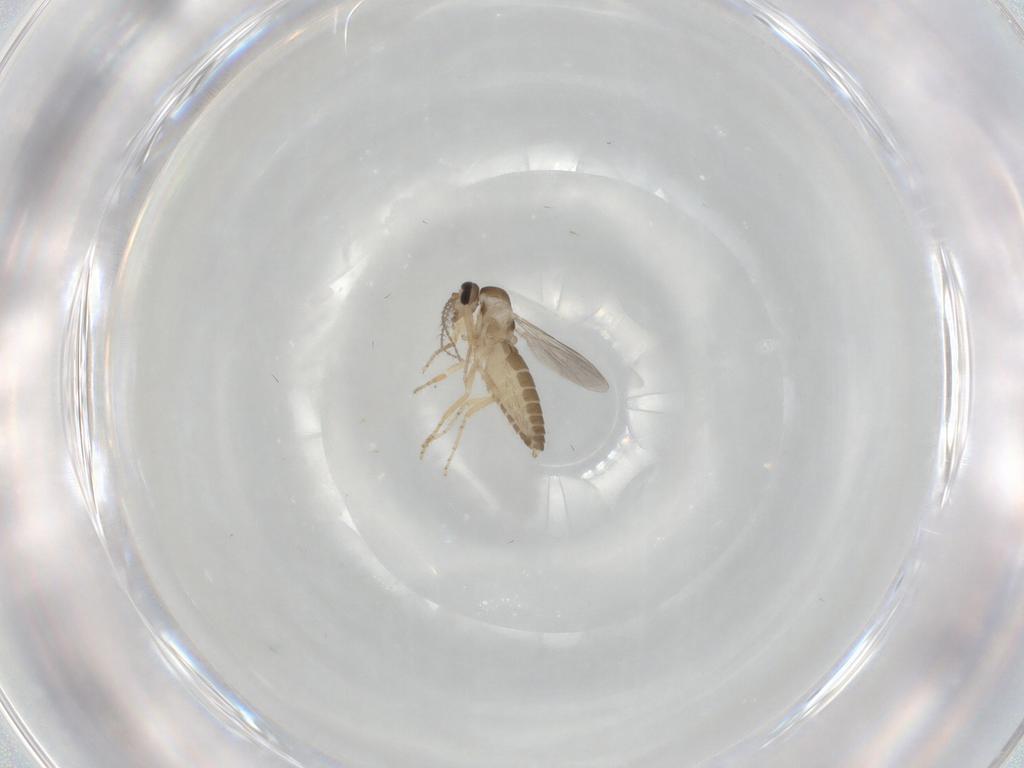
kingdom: Animalia
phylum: Arthropoda
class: Insecta
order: Diptera
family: Ceratopogonidae
